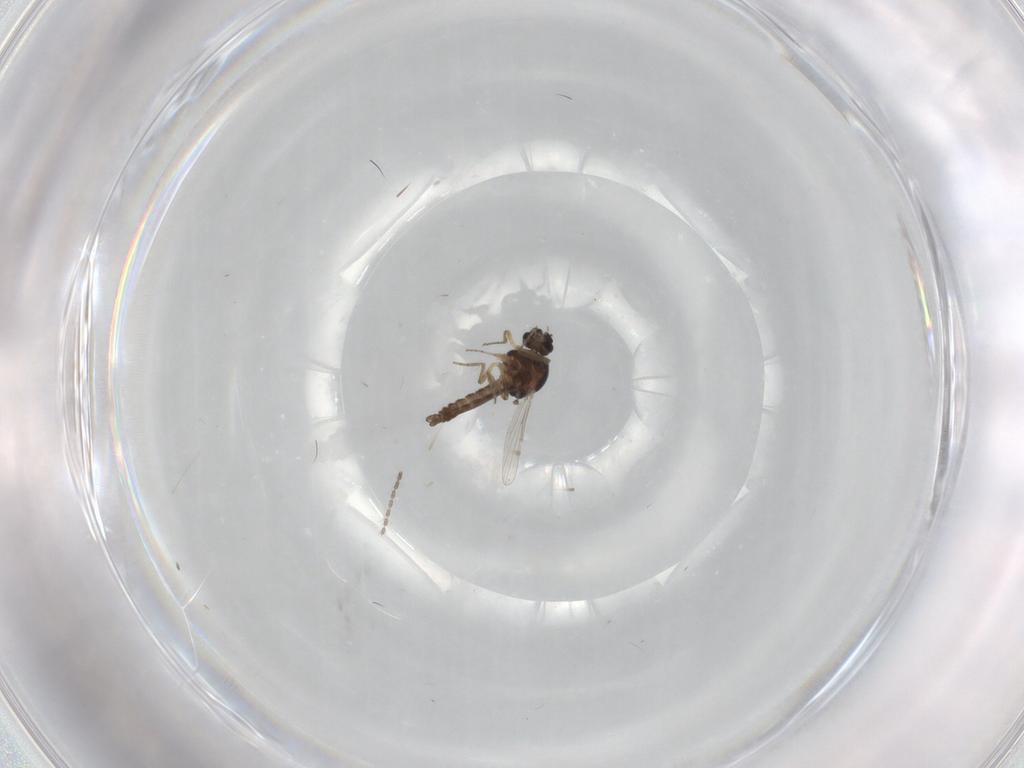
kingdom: Animalia
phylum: Arthropoda
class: Insecta
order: Diptera
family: Ceratopogonidae
